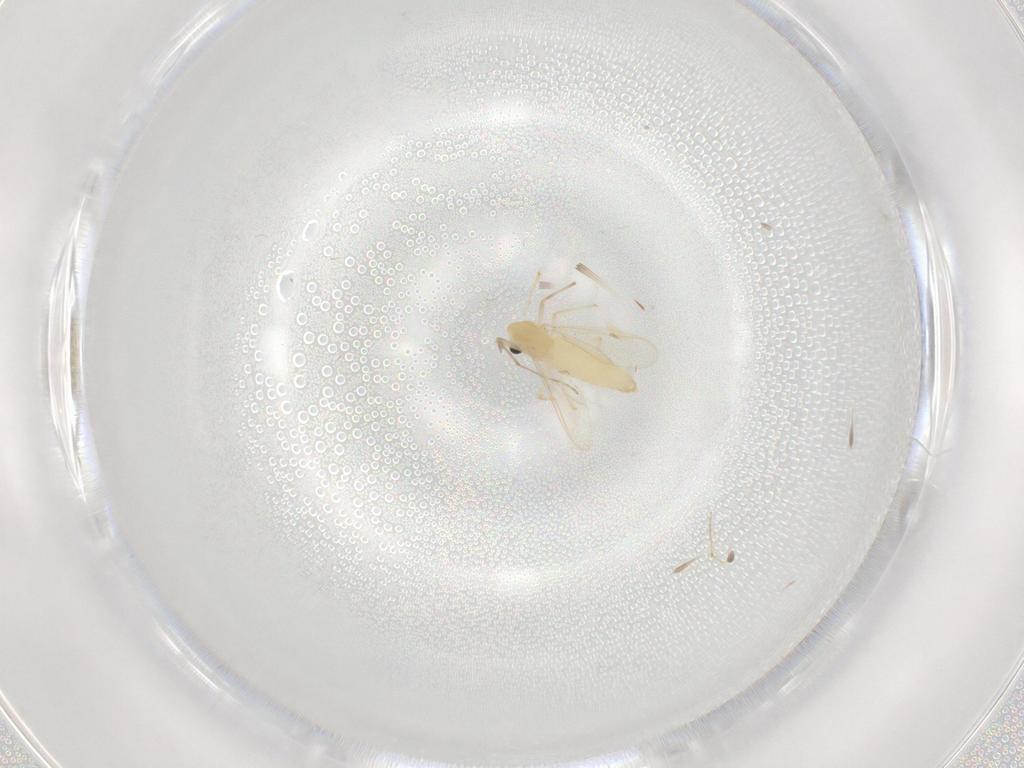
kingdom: Animalia
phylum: Arthropoda
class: Insecta
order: Diptera
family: Chironomidae
